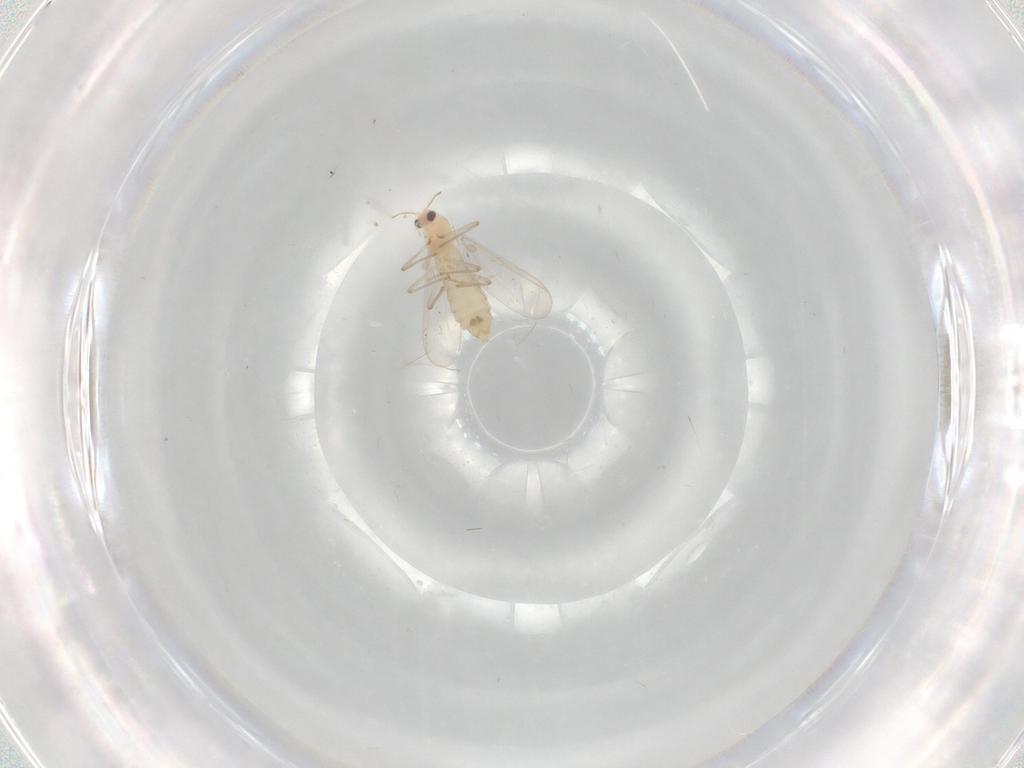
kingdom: Animalia
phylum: Arthropoda
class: Insecta
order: Diptera
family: Chironomidae
